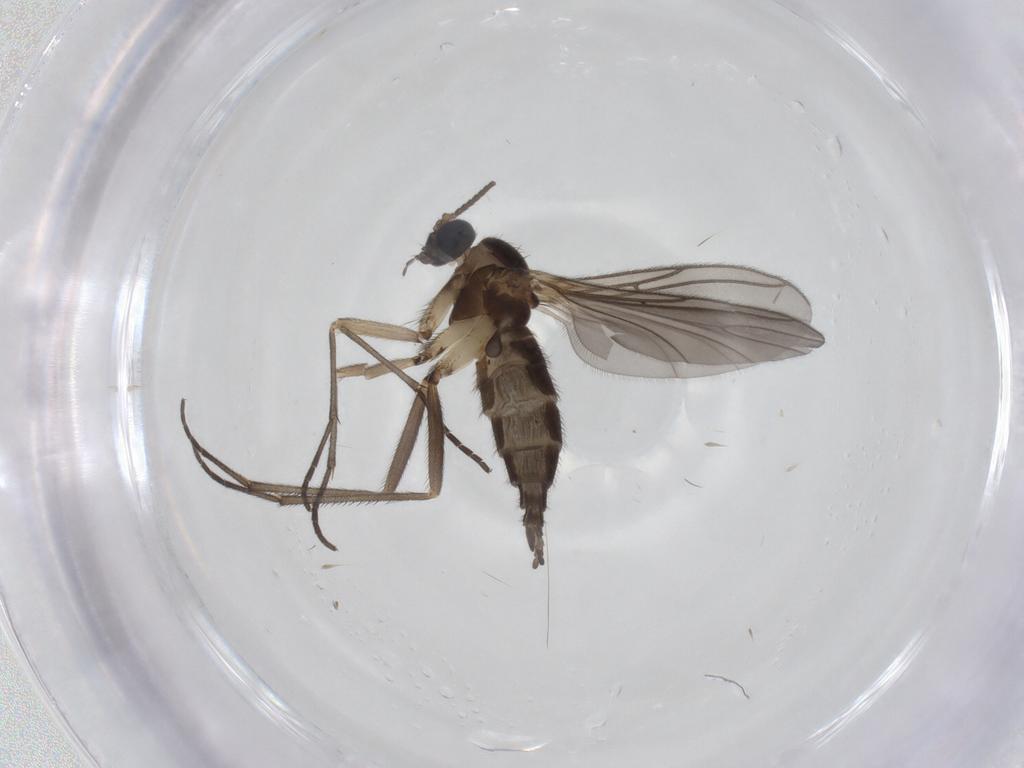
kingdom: Animalia
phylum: Arthropoda
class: Insecta
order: Diptera
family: Sciaridae
